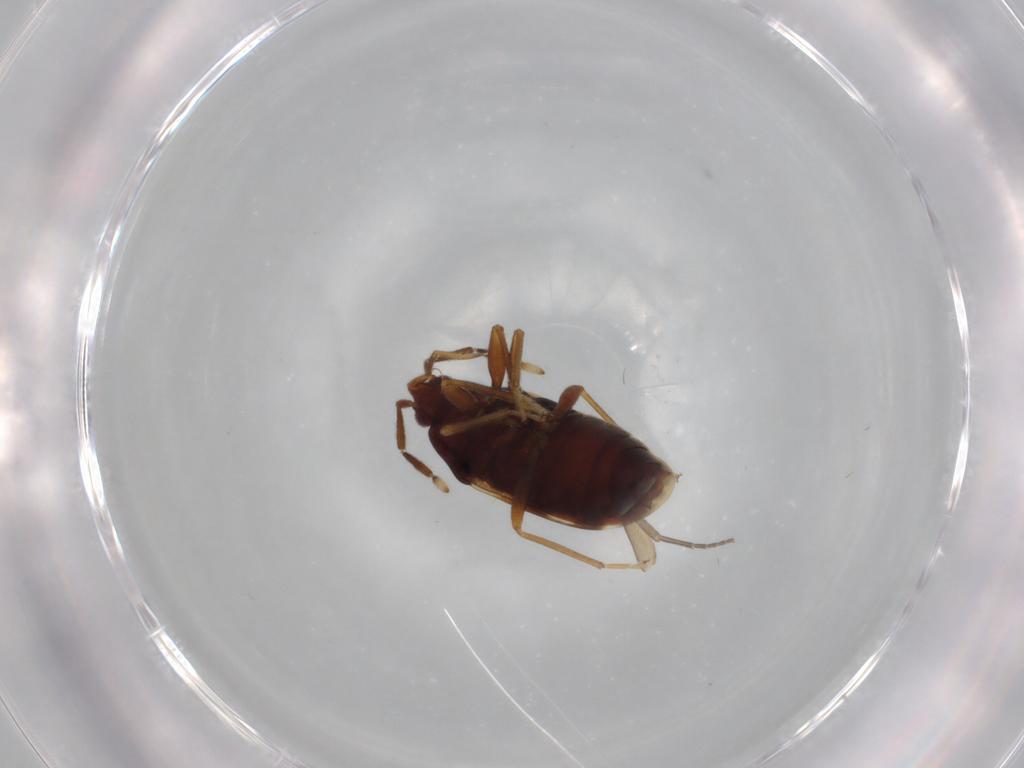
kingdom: Animalia
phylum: Arthropoda
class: Insecta
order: Hemiptera
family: Rhyparochromidae
